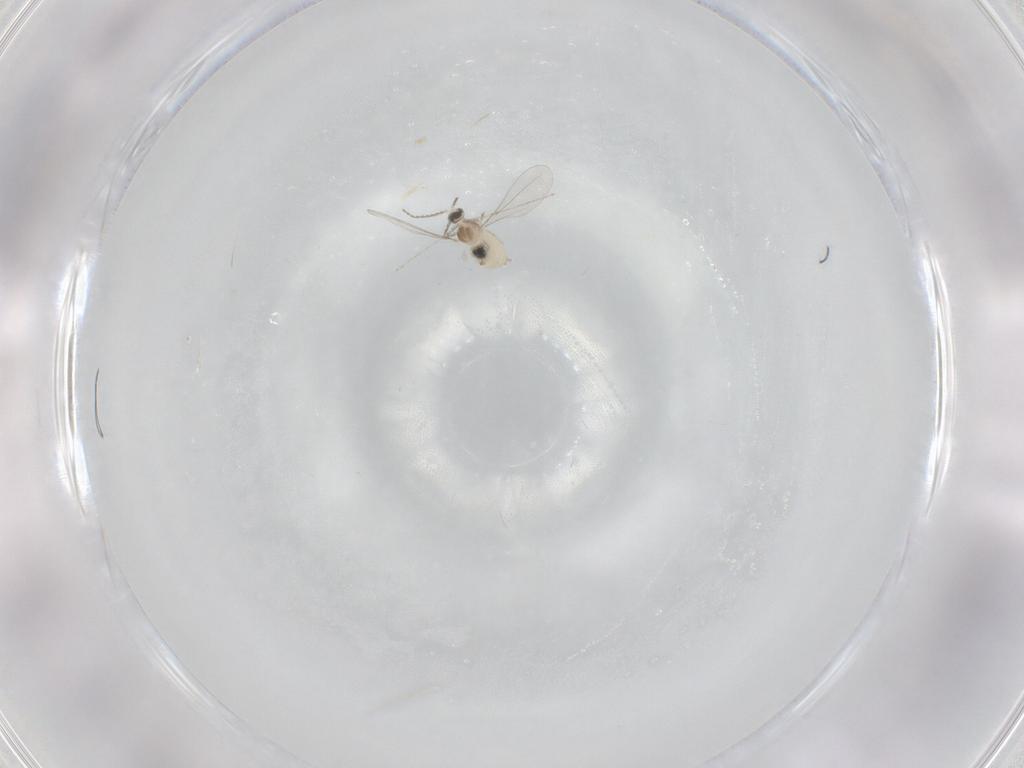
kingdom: Animalia
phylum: Arthropoda
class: Insecta
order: Diptera
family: Cecidomyiidae
